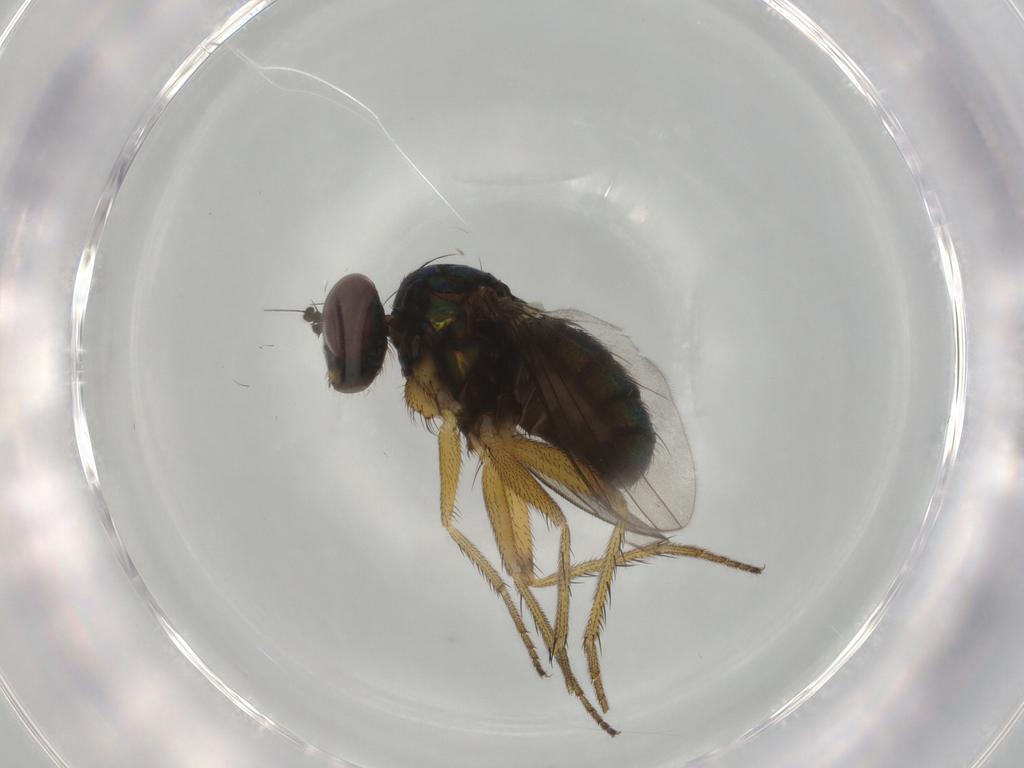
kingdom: Animalia
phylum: Arthropoda
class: Insecta
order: Diptera
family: Dolichopodidae
